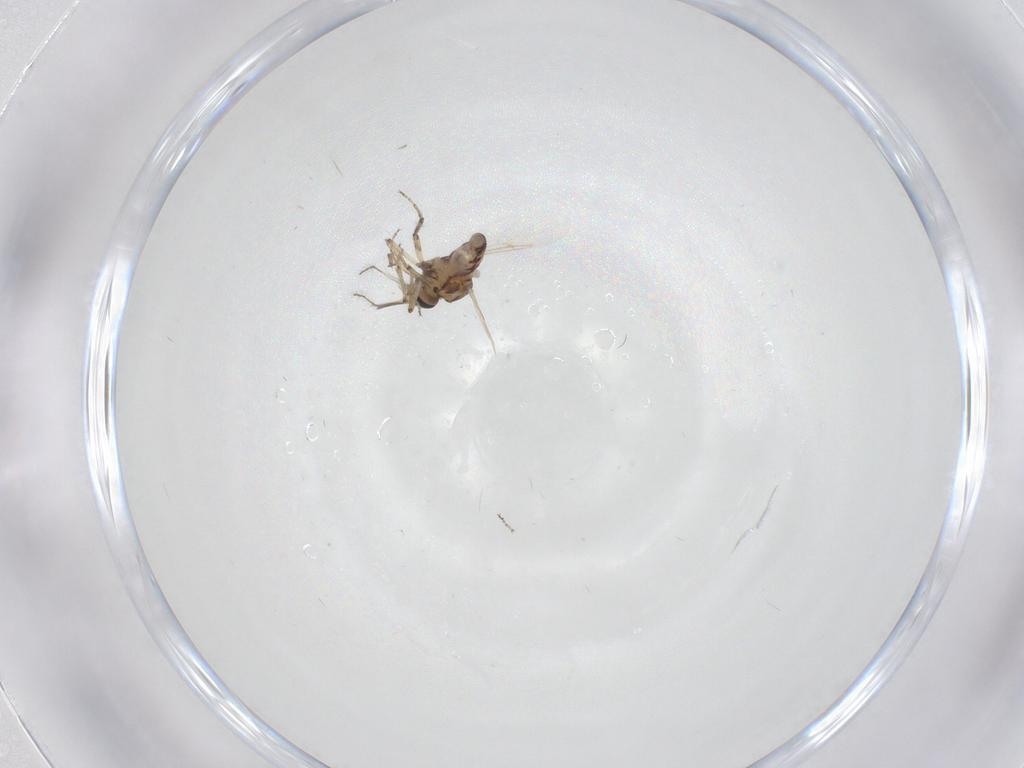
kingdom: Animalia
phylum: Arthropoda
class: Insecta
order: Diptera
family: Ceratopogonidae
